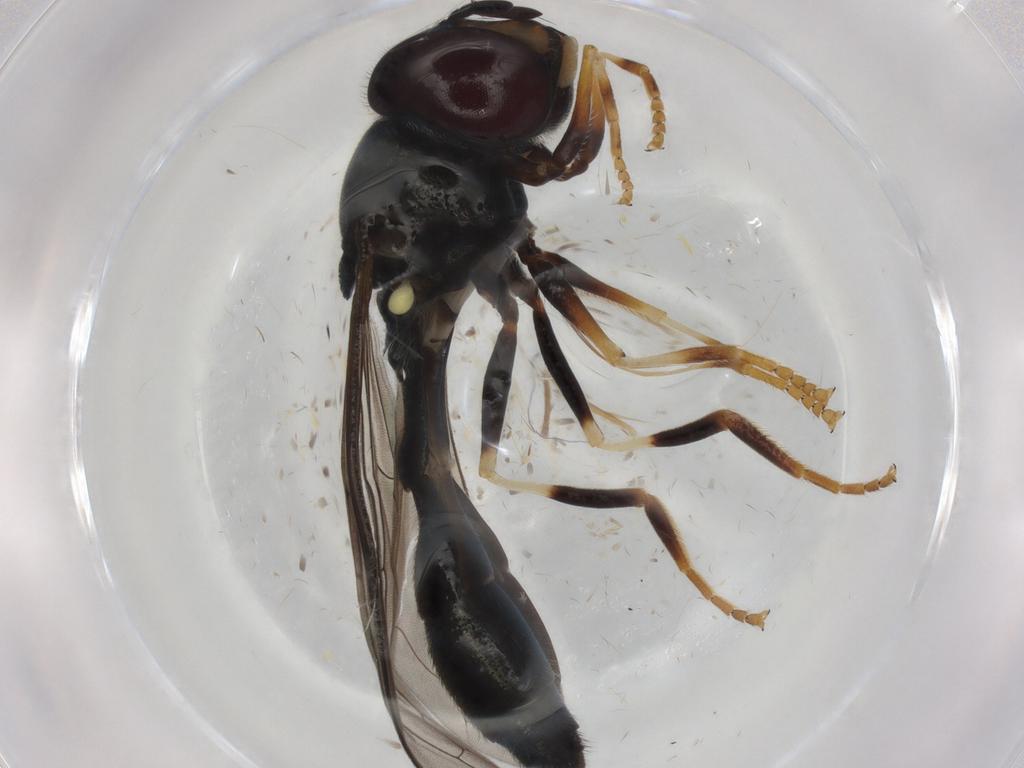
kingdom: Animalia
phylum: Arthropoda
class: Insecta
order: Diptera
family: Syrphidae
